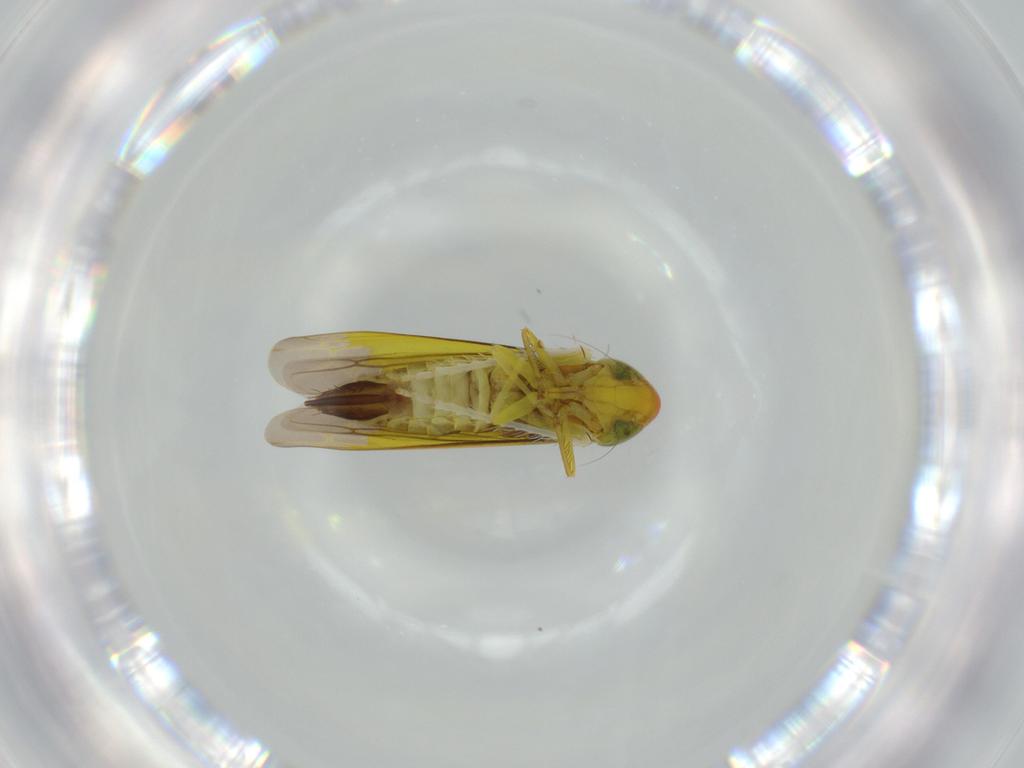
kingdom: Animalia
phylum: Arthropoda
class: Insecta
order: Hemiptera
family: Cicadellidae
